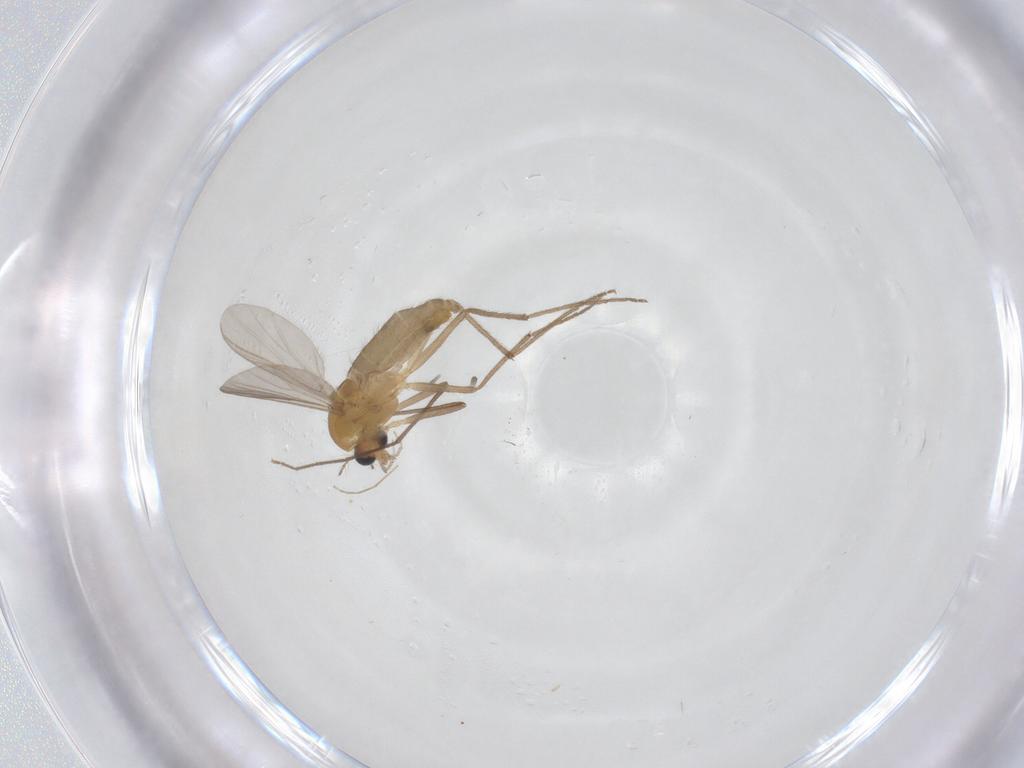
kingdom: Animalia
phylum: Arthropoda
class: Insecta
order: Diptera
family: Chironomidae
